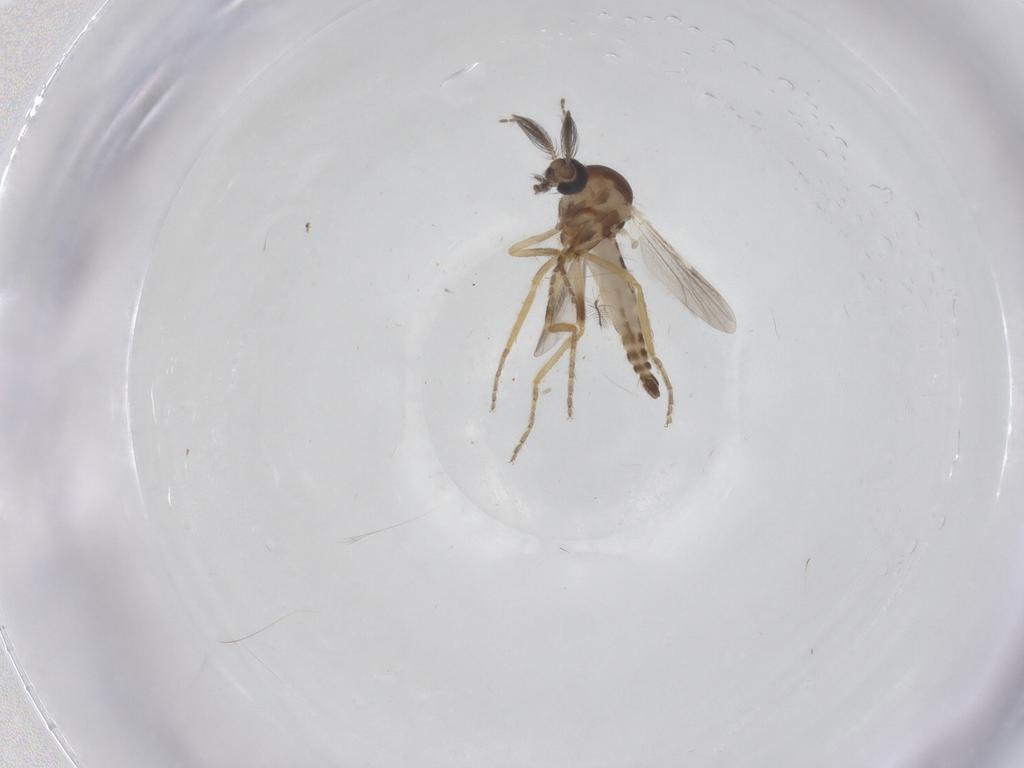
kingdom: Animalia
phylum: Arthropoda
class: Insecta
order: Diptera
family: Ceratopogonidae
